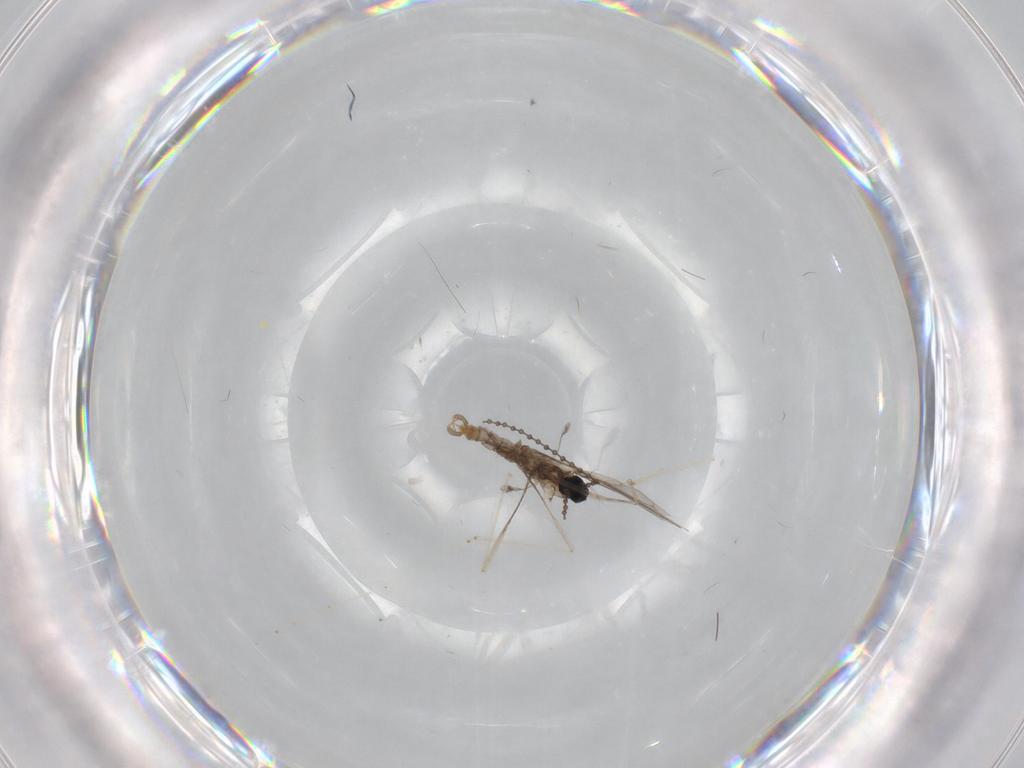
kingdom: Animalia
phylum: Arthropoda
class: Insecta
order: Diptera
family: Cecidomyiidae
